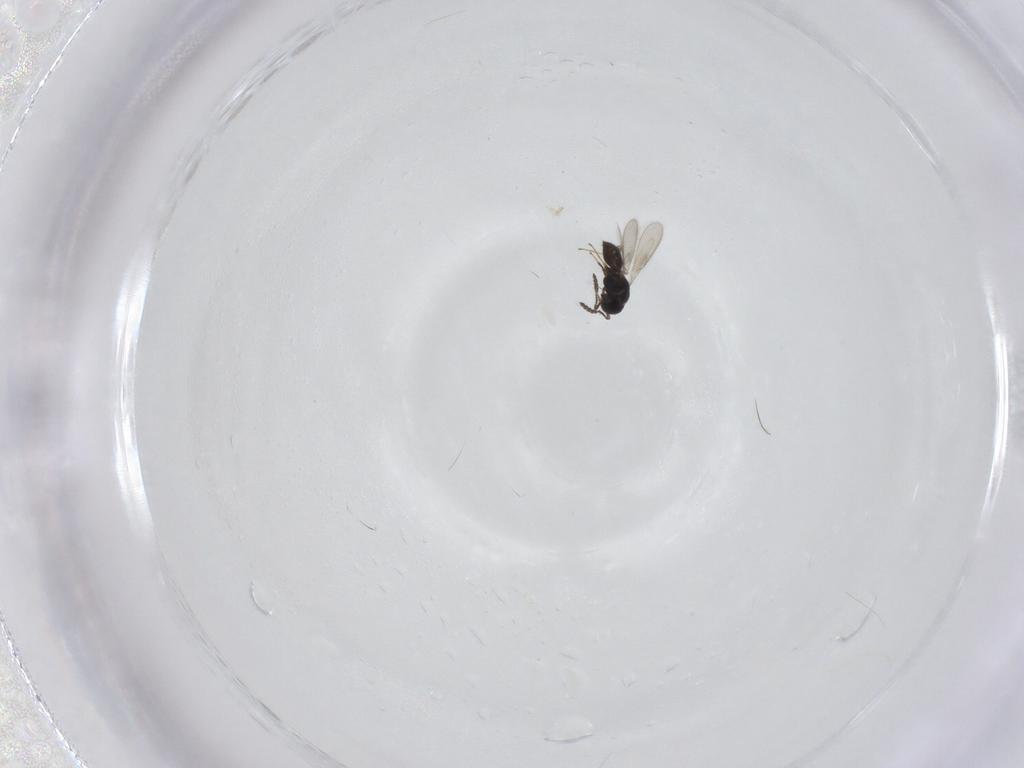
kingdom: Animalia
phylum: Arthropoda
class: Insecta
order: Hymenoptera
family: Scelionidae
